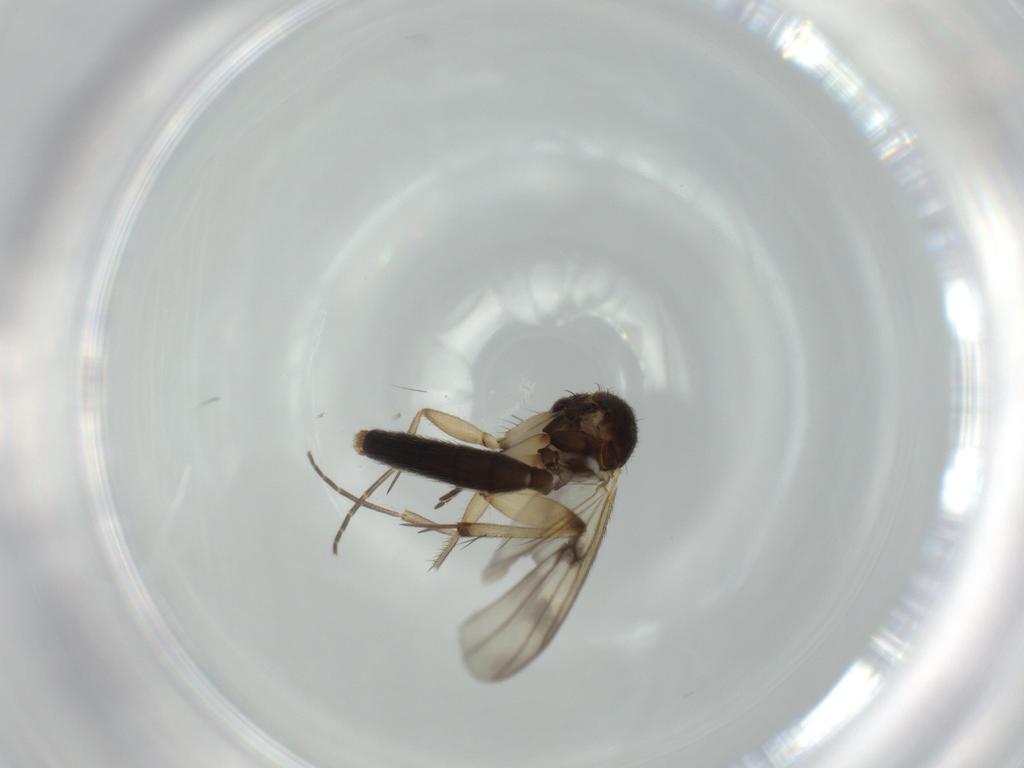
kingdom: Animalia
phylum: Arthropoda
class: Insecta
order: Diptera
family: Mycetophilidae
